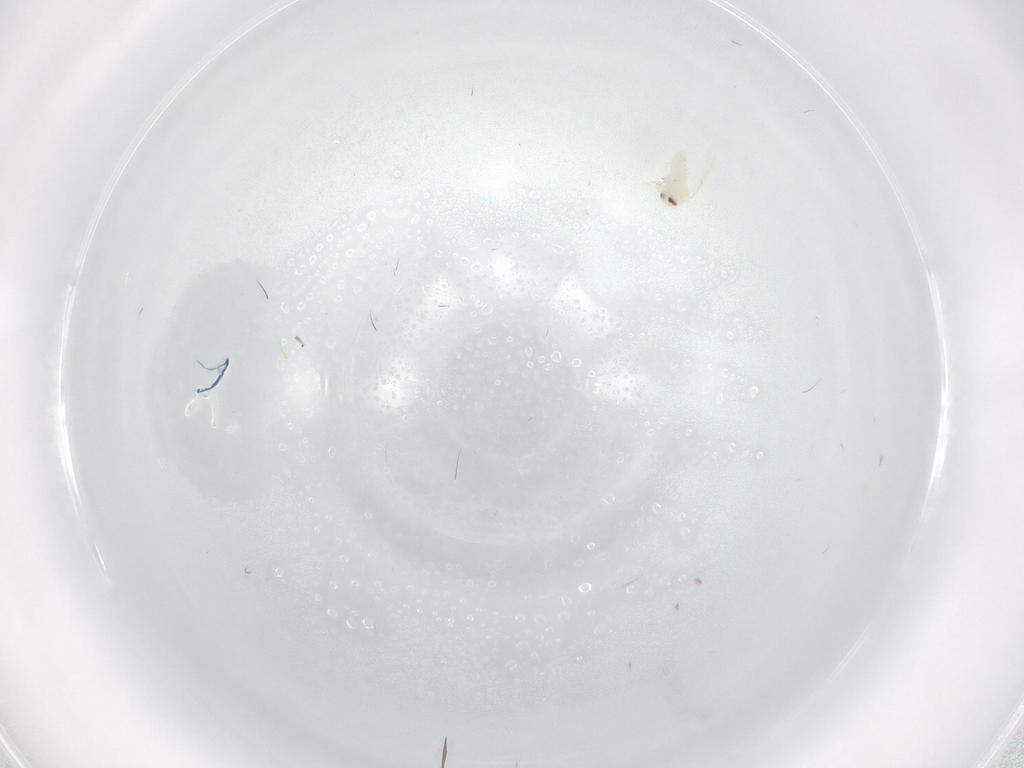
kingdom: Animalia
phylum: Arthropoda
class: Insecta
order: Hemiptera
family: Aleyrodidae
